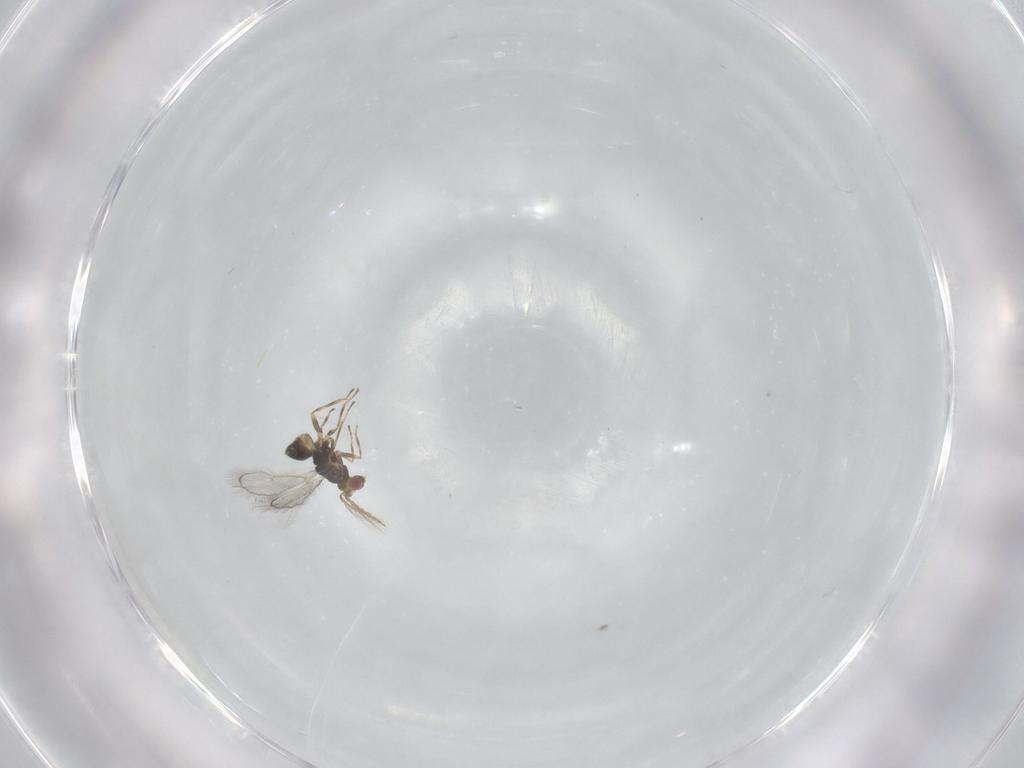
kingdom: Animalia
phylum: Arthropoda
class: Insecta
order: Hymenoptera
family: Eulophidae
